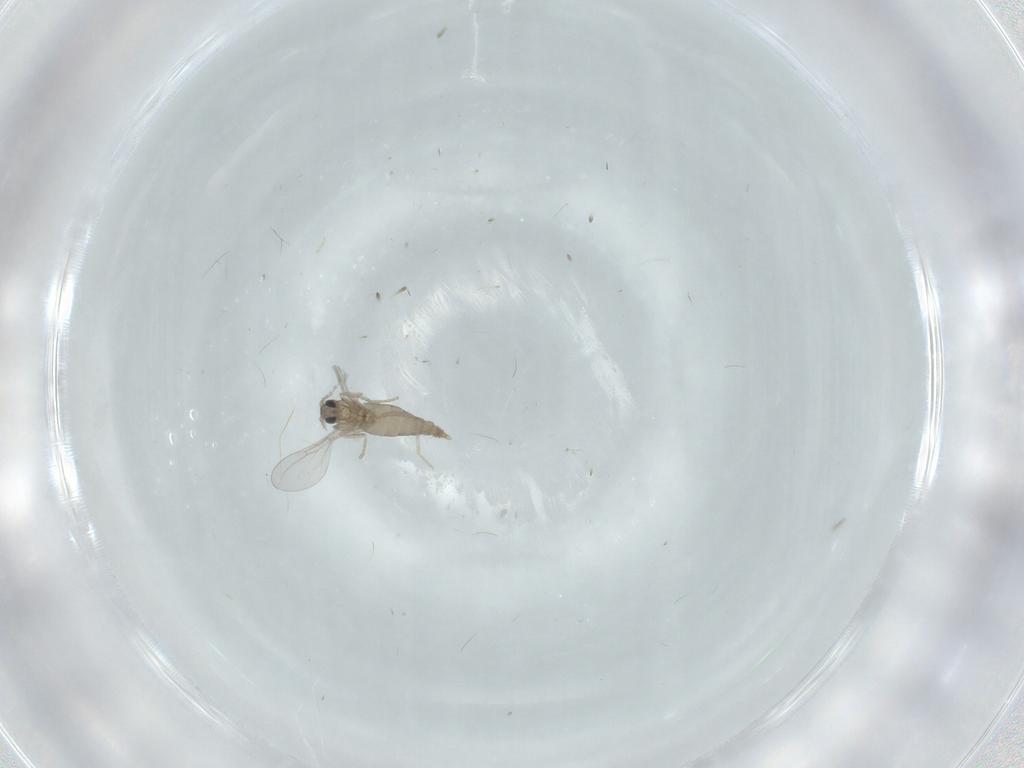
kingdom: Animalia
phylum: Arthropoda
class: Insecta
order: Diptera
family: Cecidomyiidae
